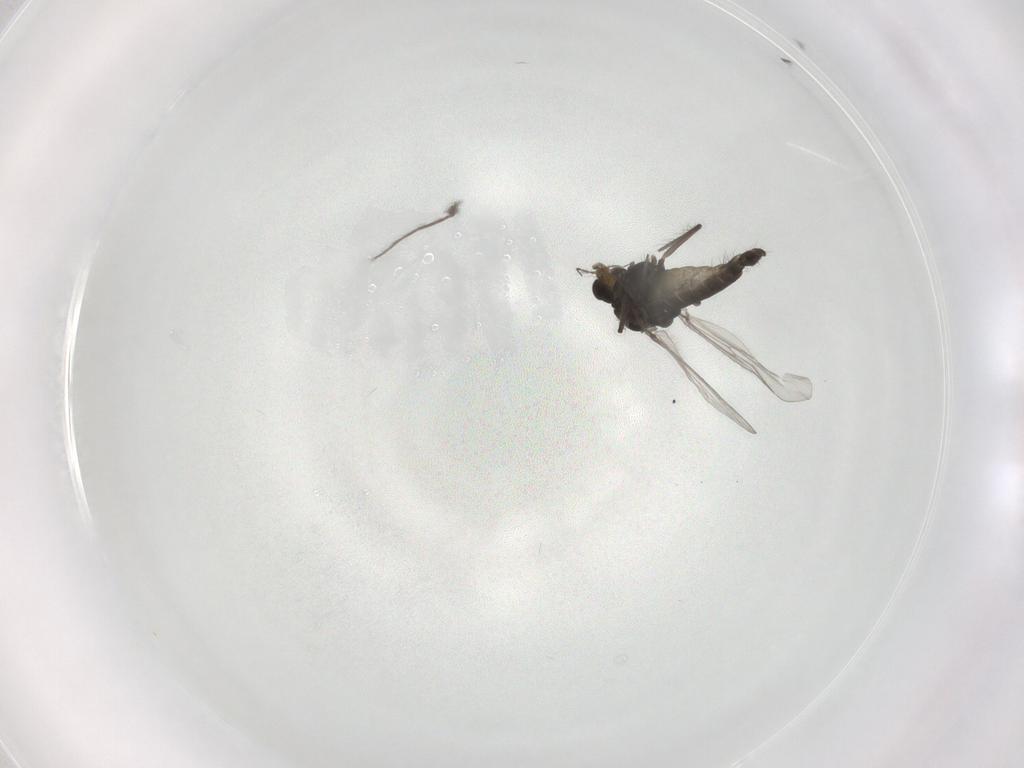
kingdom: Animalia
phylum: Arthropoda
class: Insecta
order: Diptera
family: Chironomidae
